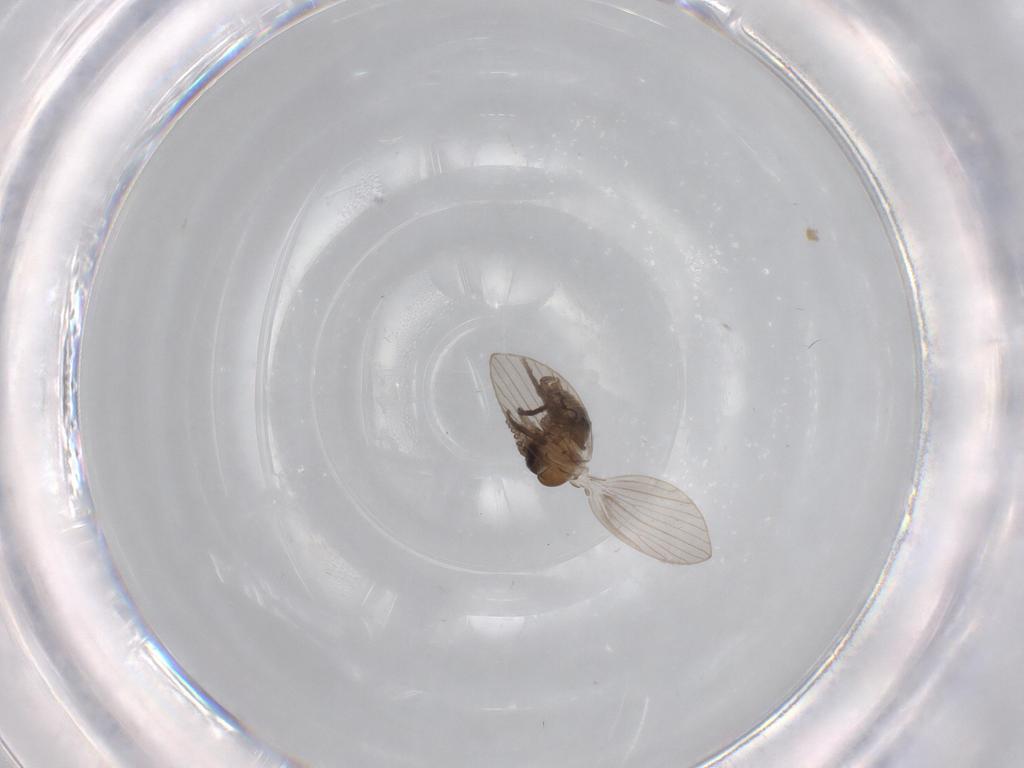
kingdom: Animalia
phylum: Arthropoda
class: Insecta
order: Diptera
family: Psychodidae
